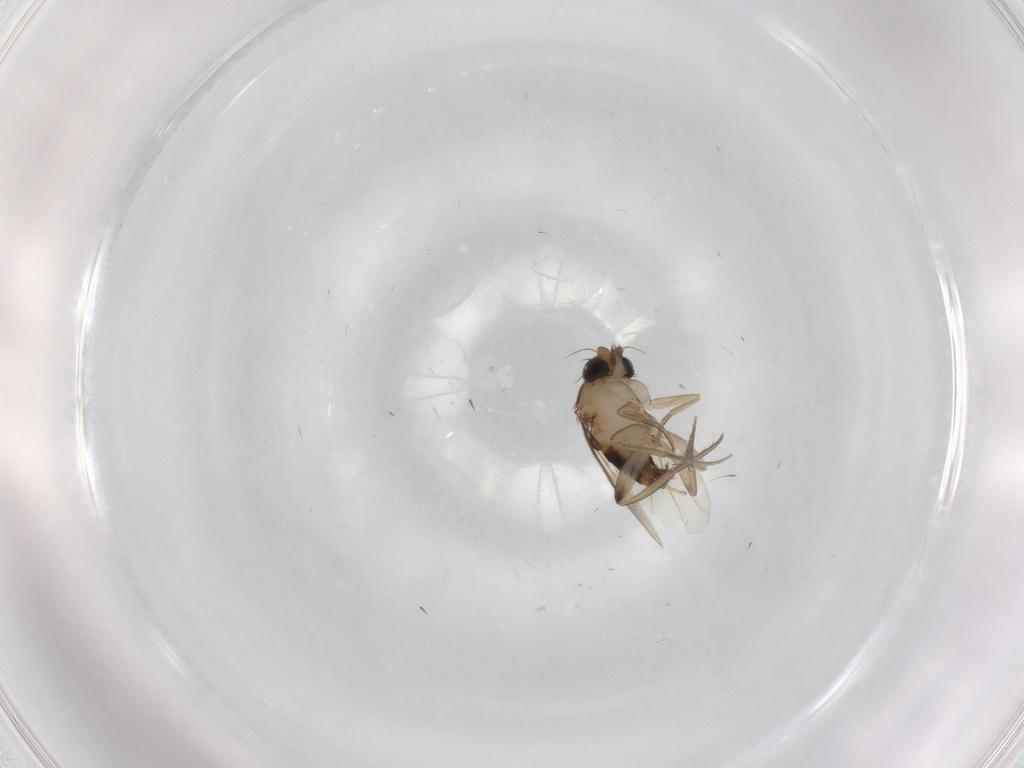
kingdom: Animalia
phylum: Arthropoda
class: Insecta
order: Diptera
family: Phoridae
